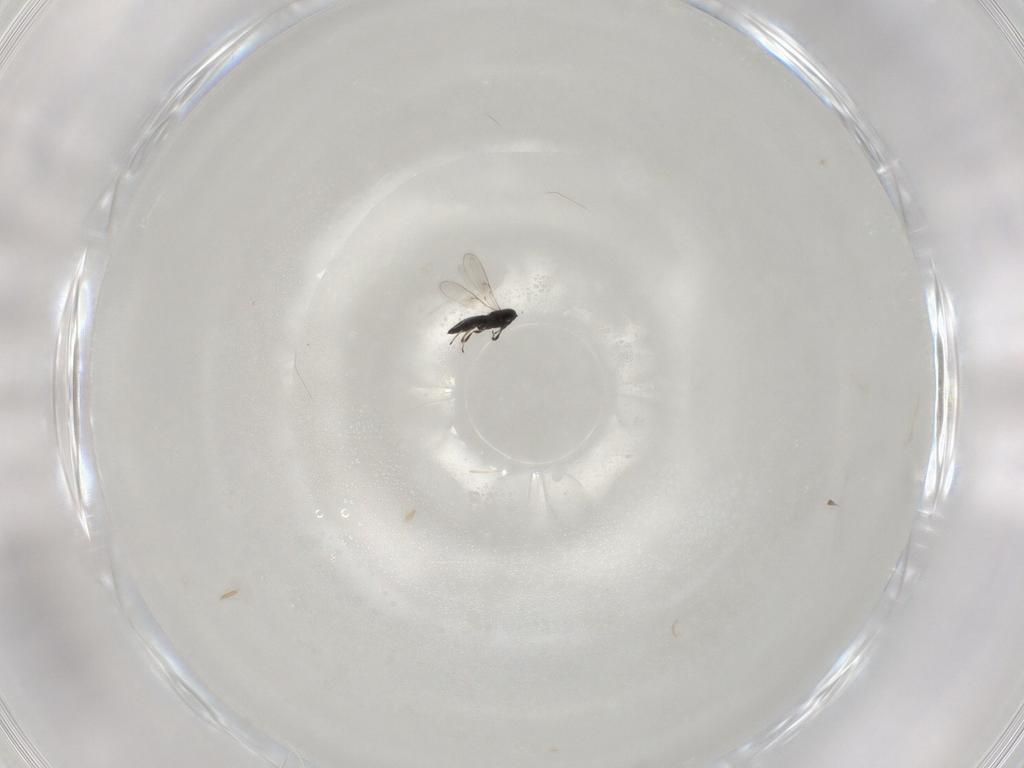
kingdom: Animalia
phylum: Arthropoda
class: Insecta
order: Hymenoptera
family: Scelionidae
